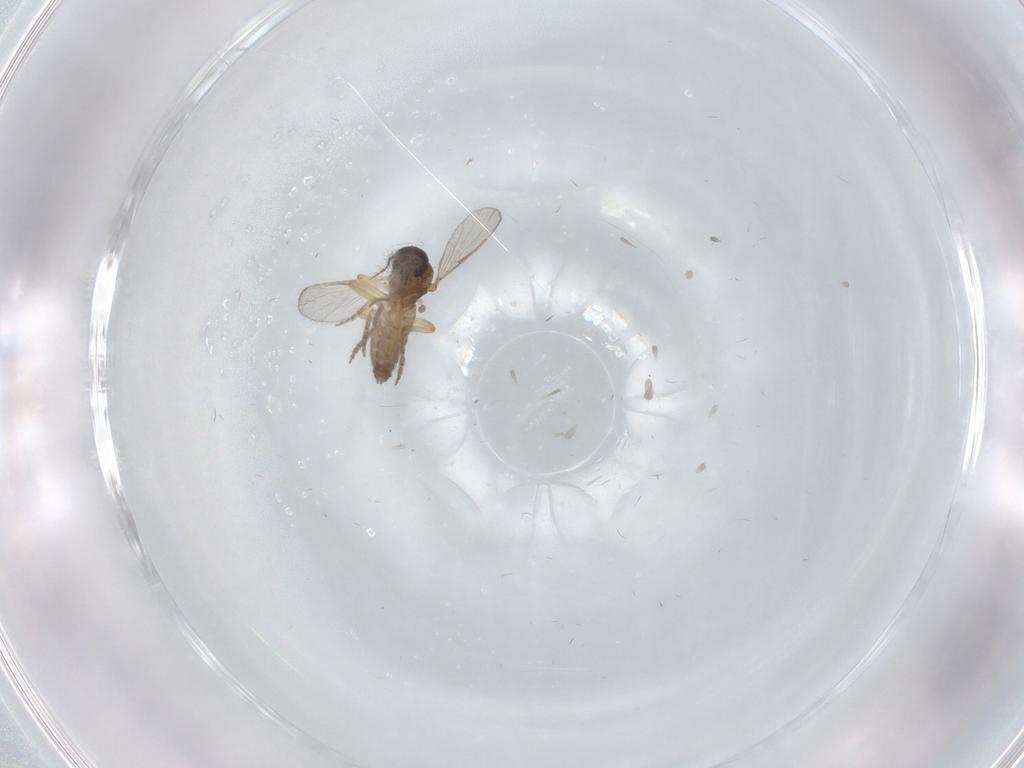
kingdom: Animalia
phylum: Arthropoda
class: Insecta
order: Diptera
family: Ceratopogonidae
